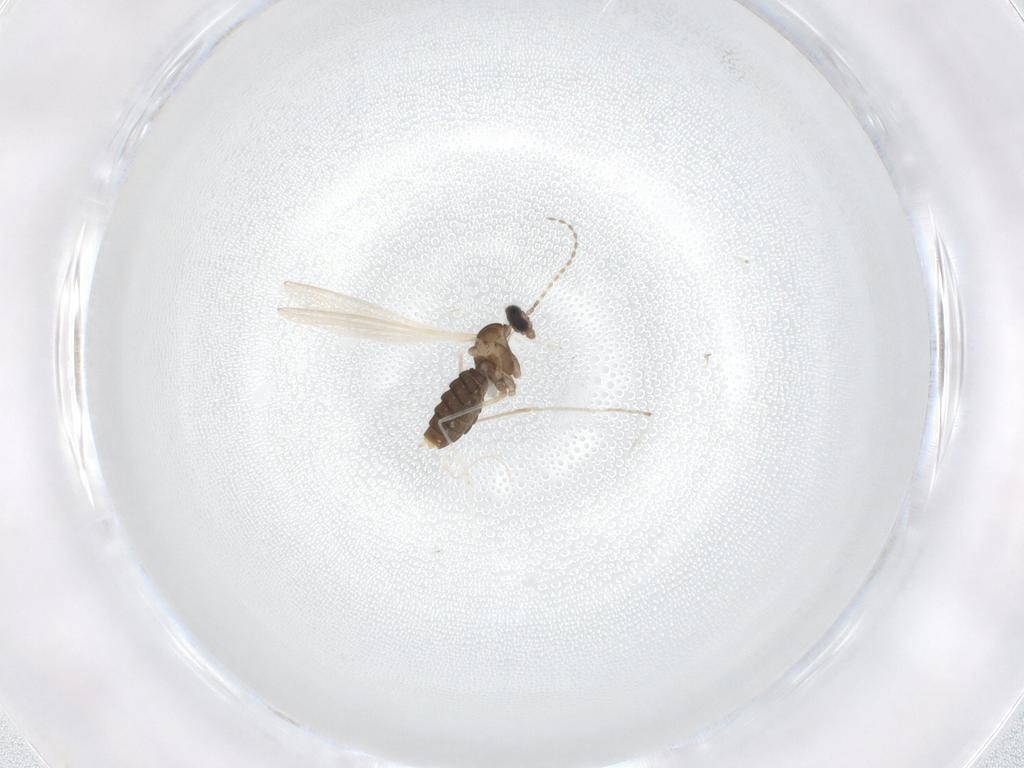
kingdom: Animalia
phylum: Arthropoda
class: Insecta
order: Diptera
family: Cecidomyiidae
